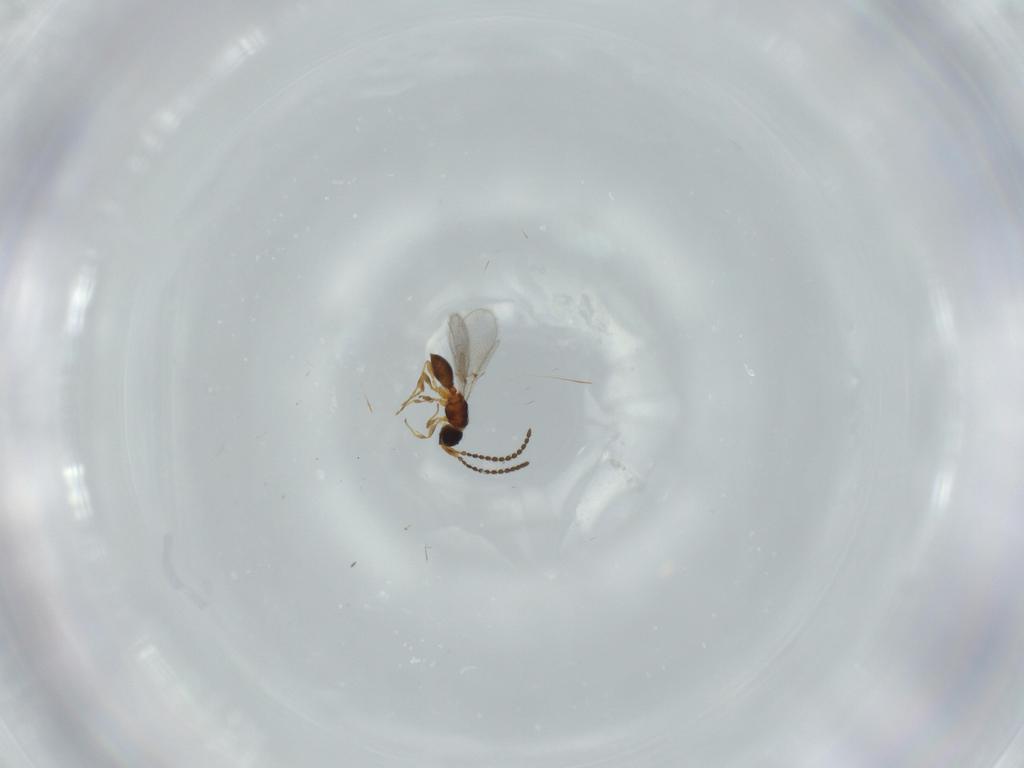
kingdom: Animalia
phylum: Arthropoda
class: Insecta
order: Hymenoptera
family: Diapriidae
